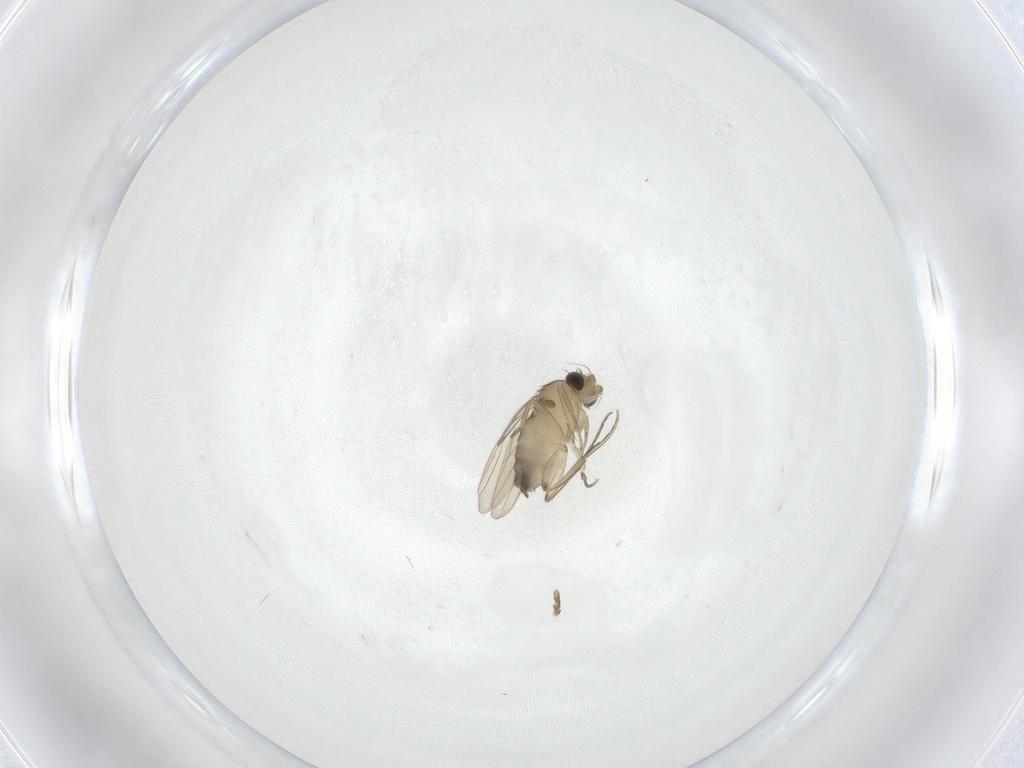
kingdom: Animalia
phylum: Arthropoda
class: Insecta
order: Diptera
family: Phoridae
